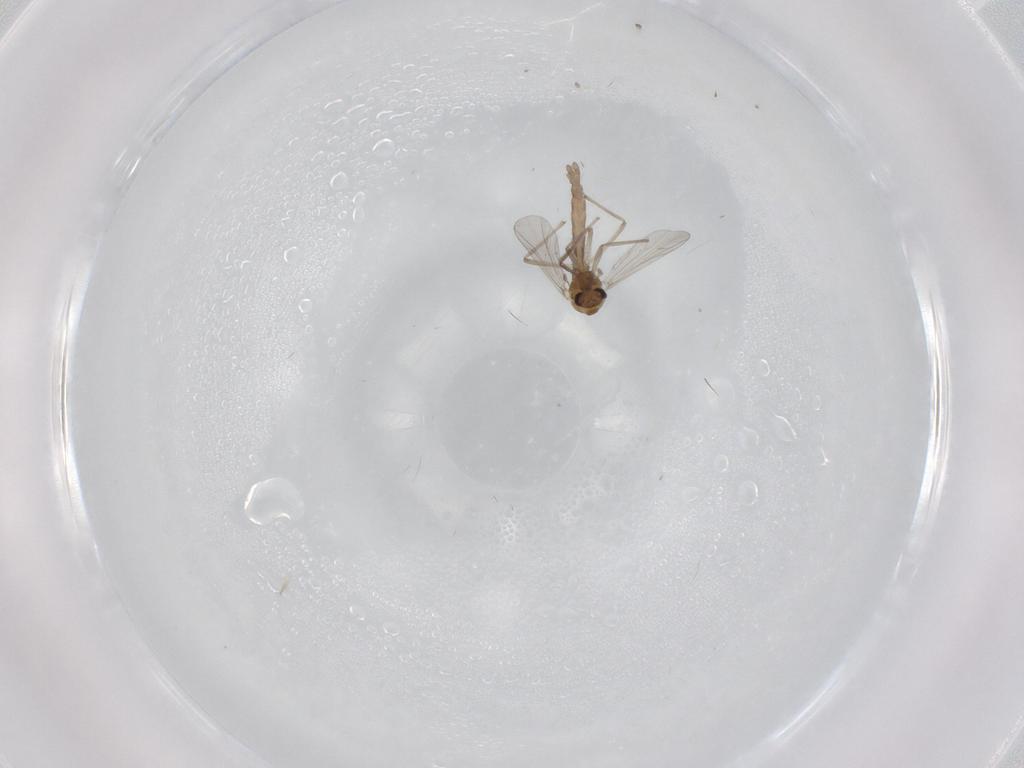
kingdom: Animalia
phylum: Arthropoda
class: Insecta
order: Diptera
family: Chironomidae
